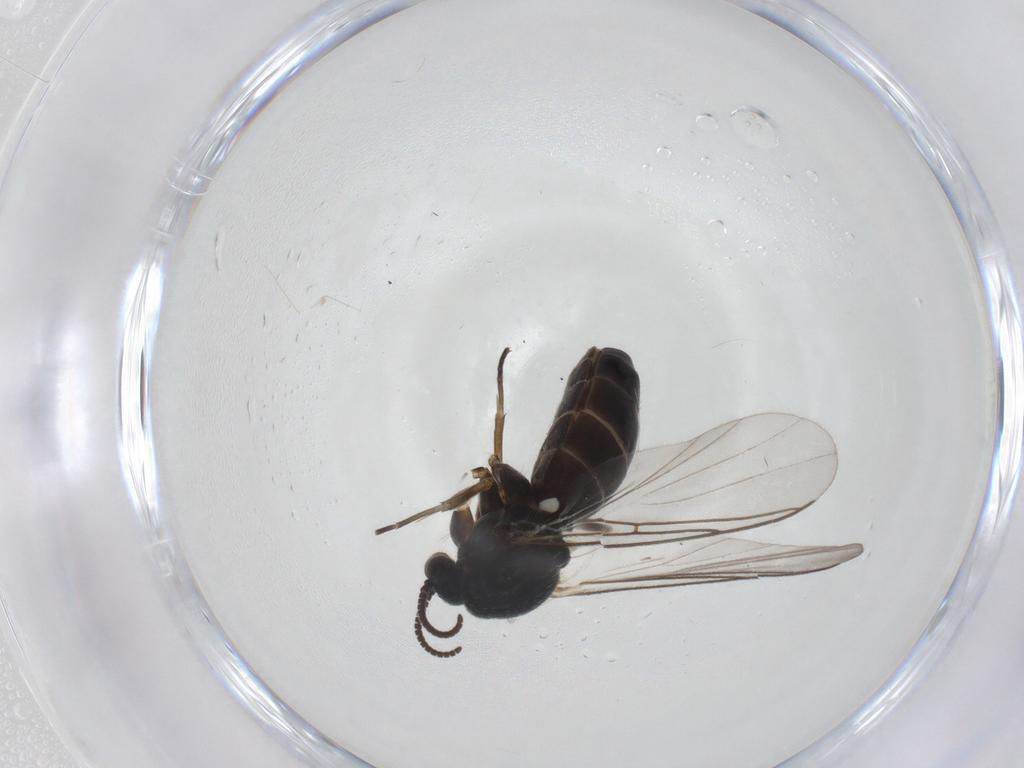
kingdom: Animalia
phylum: Arthropoda
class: Insecta
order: Diptera
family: Mycetophilidae
